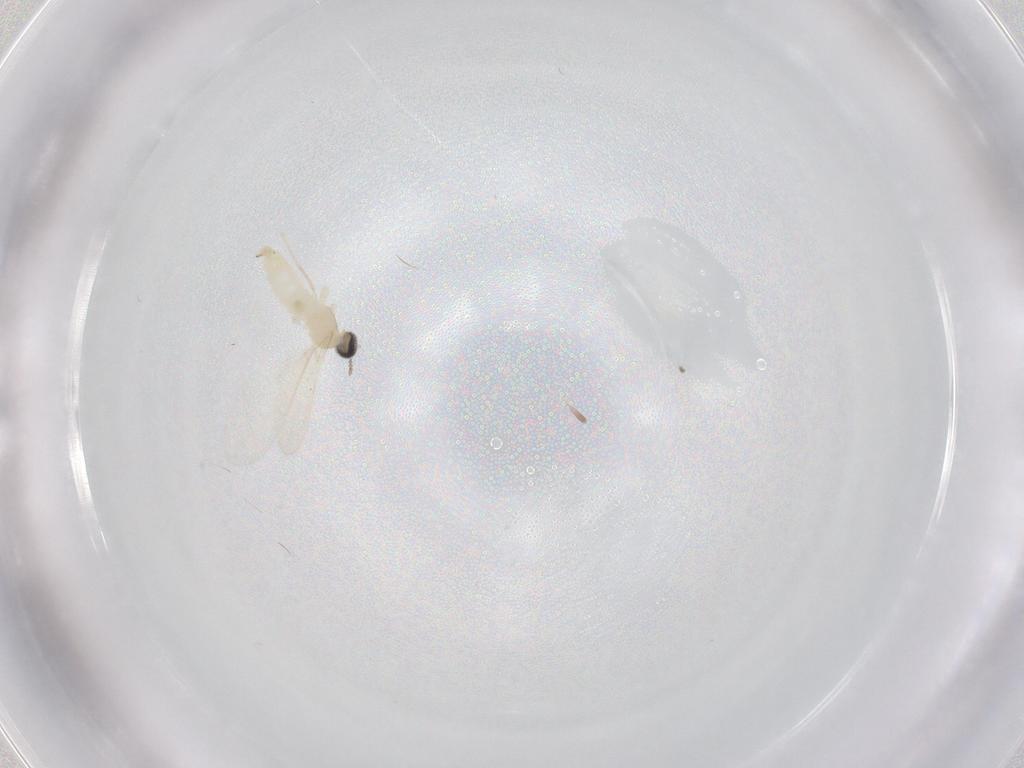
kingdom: Animalia
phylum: Arthropoda
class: Insecta
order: Diptera
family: Cecidomyiidae
